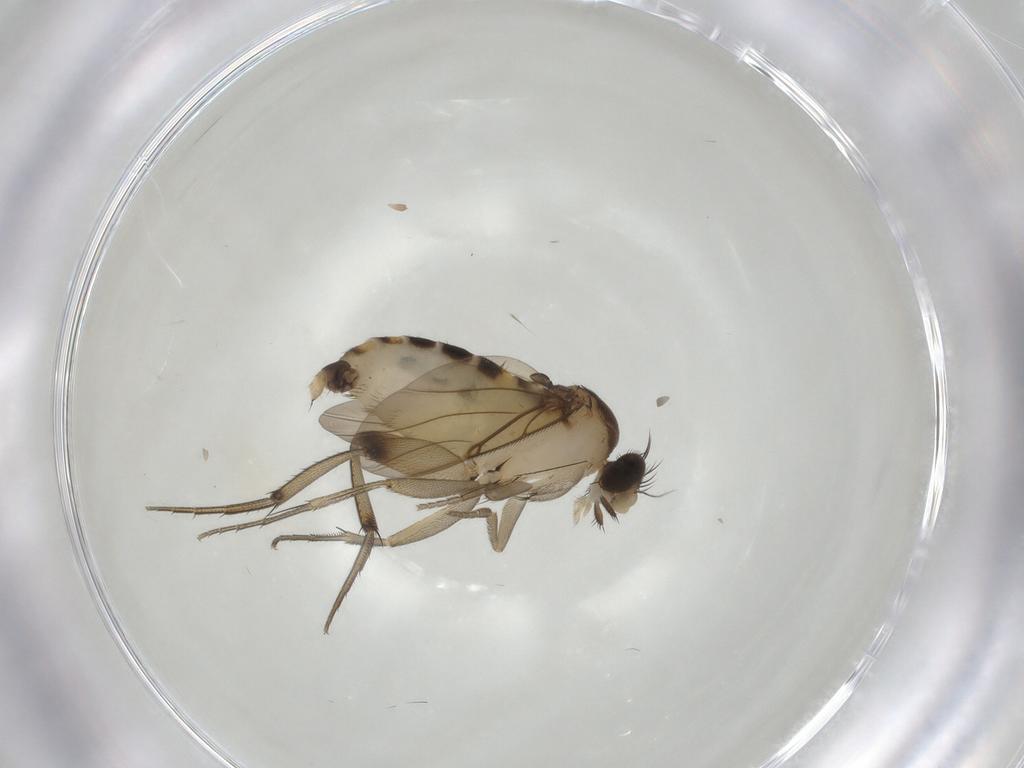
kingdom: Animalia
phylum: Arthropoda
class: Insecta
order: Diptera
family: Phoridae
